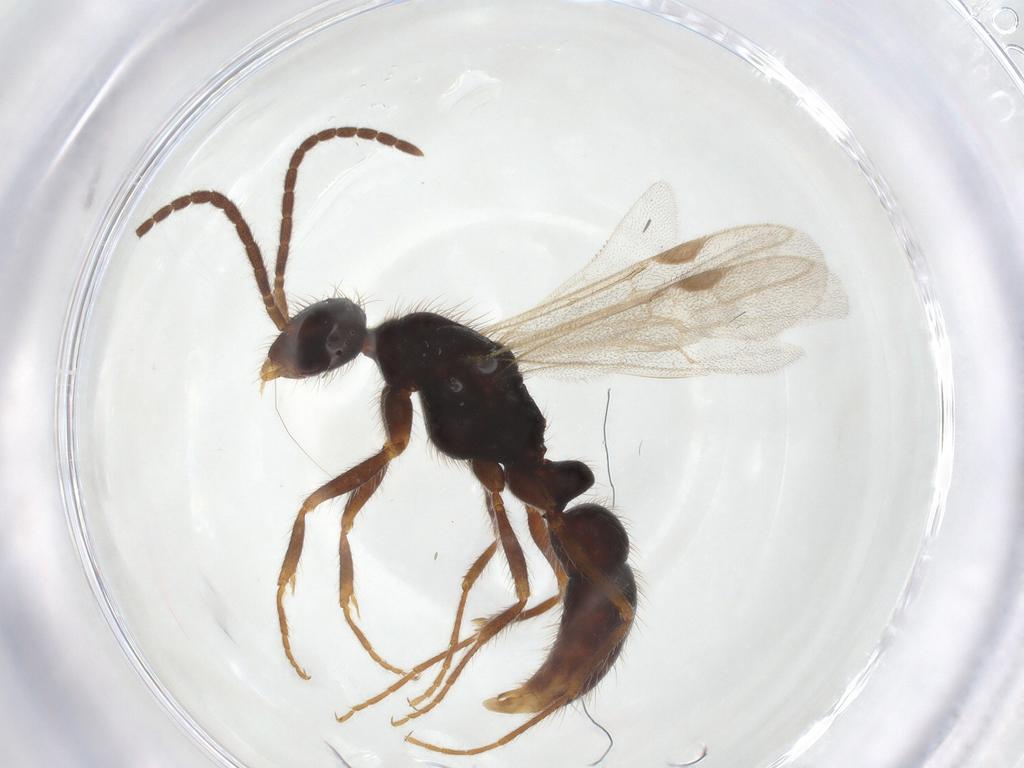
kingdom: Animalia
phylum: Arthropoda
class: Insecta
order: Hymenoptera
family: Formicidae
